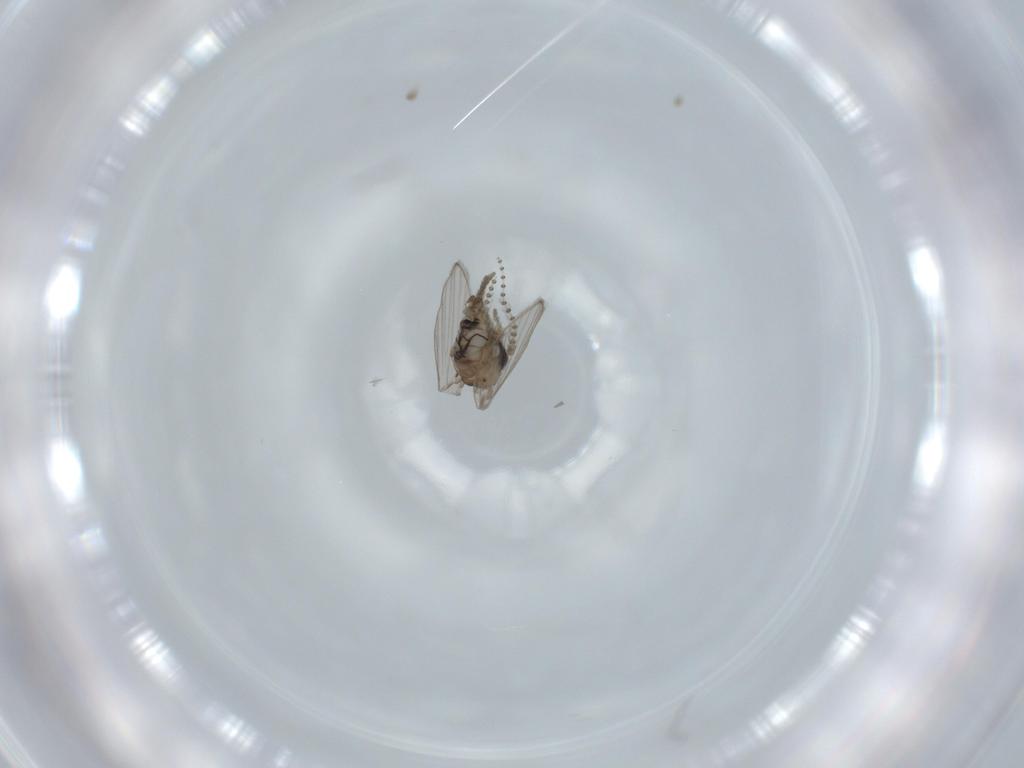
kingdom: Animalia
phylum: Arthropoda
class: Insecta
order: Diptera
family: Psychodidae
